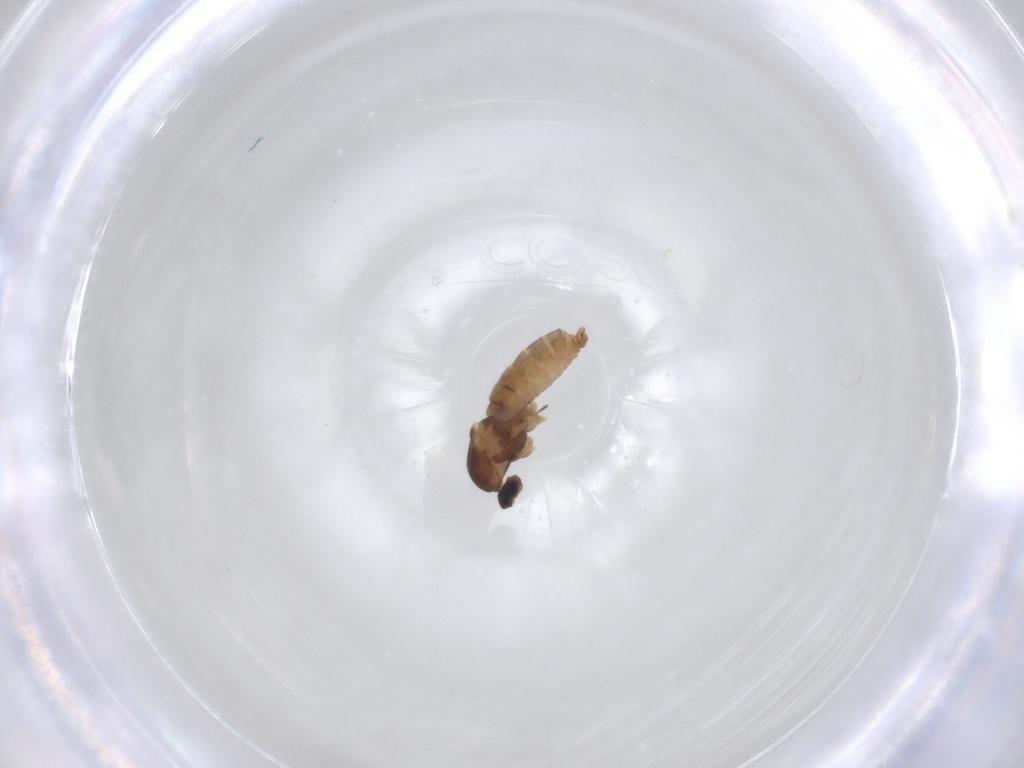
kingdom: Animalia
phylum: Arthropoda
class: Insecta
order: Diptera
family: Cecidomyiidae
